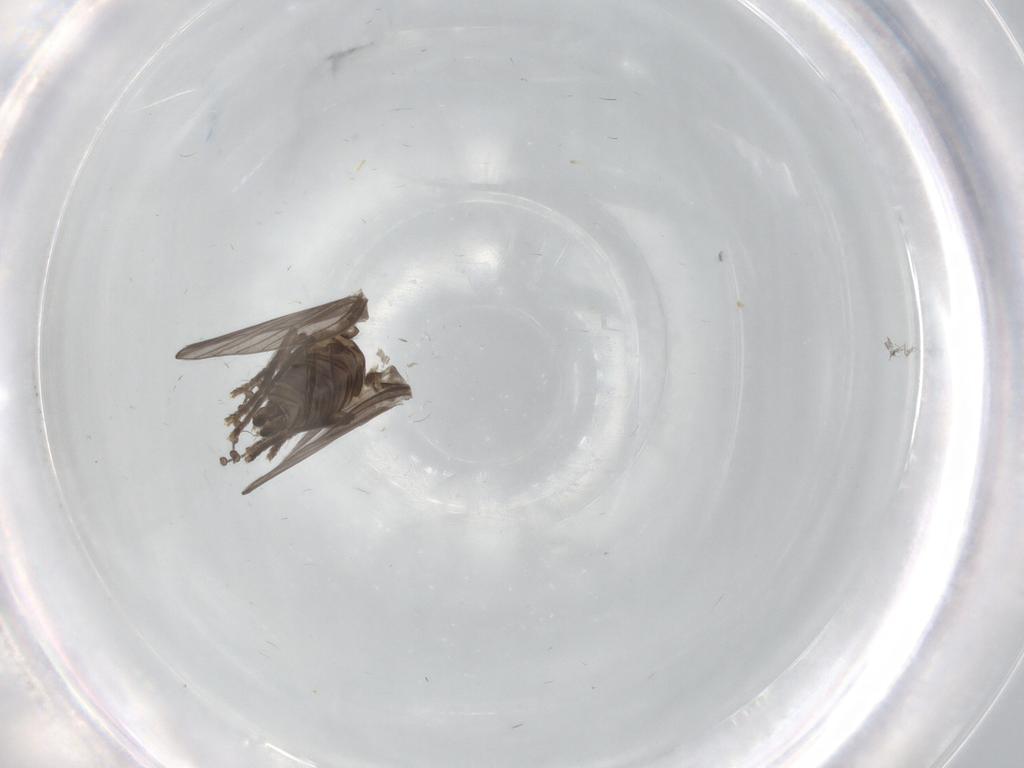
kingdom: Animalia
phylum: Arthropoda
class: Insecta
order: Diptera
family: Psychodidae
